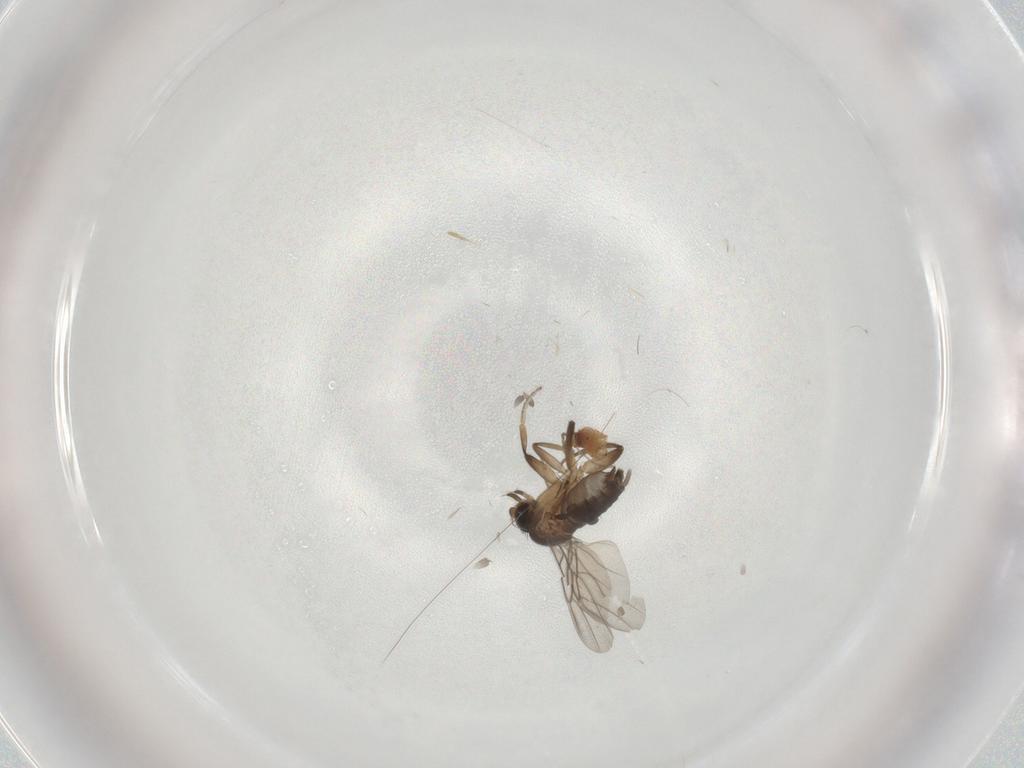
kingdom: Animalia
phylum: Arthropoda
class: Insecta
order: Diptera
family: Phoridae
